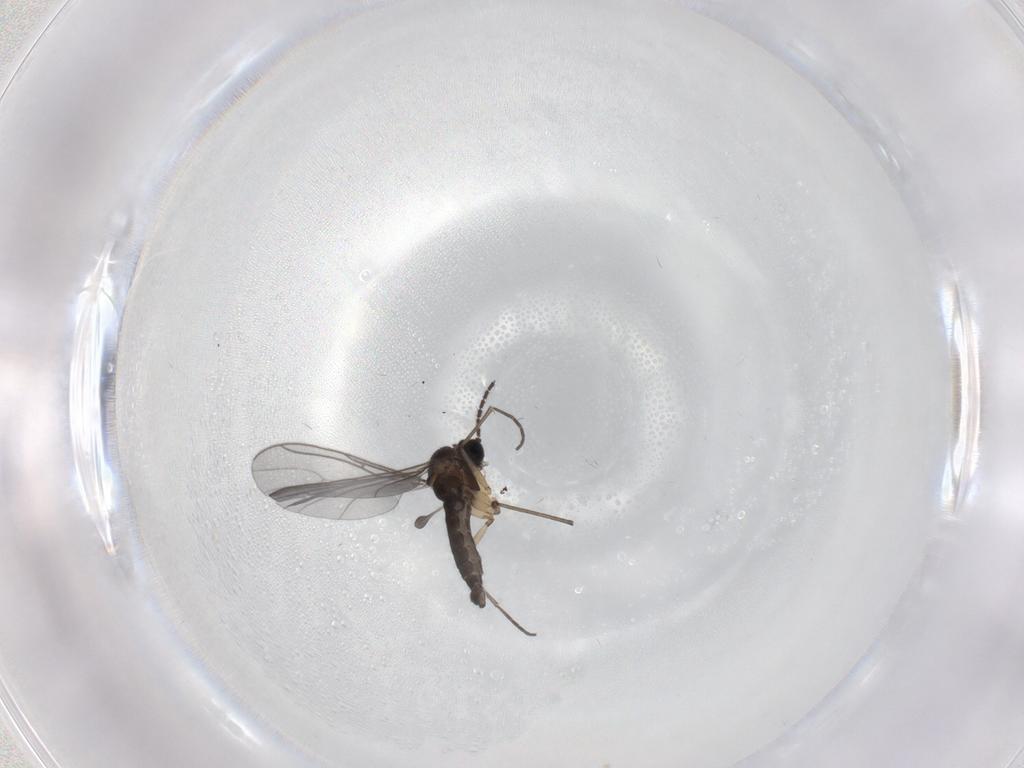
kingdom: Animalia
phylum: Arthropoda
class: Insecta
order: Diptera
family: Sciaridae
